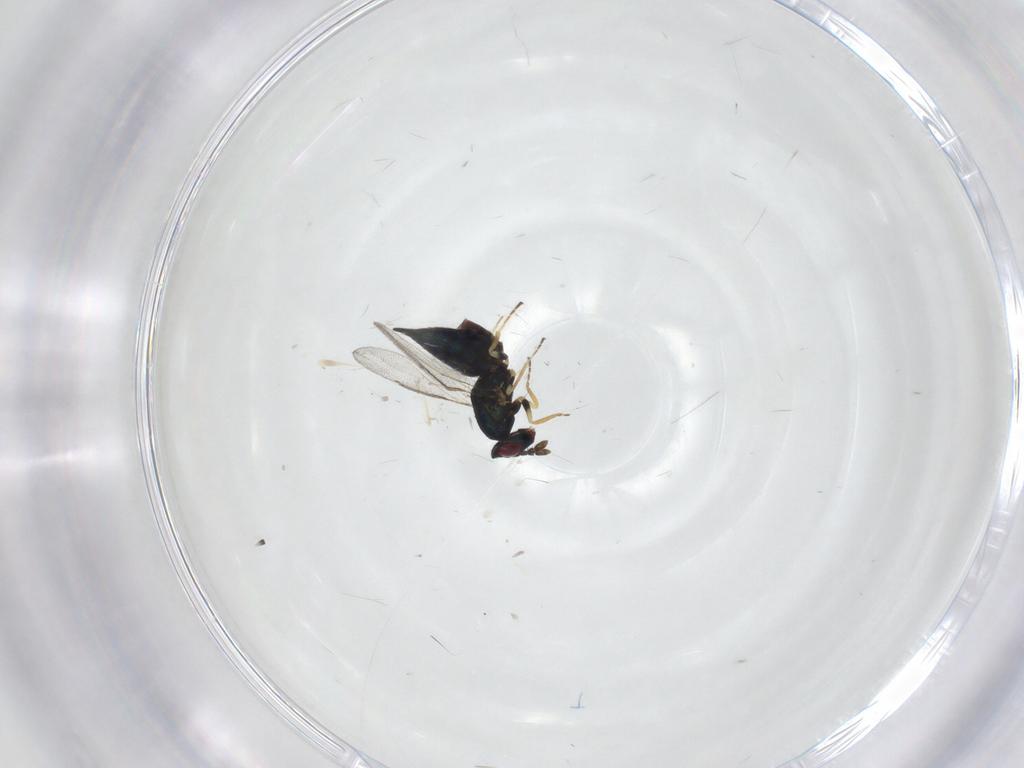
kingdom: Animalia
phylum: Arthropoda
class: Insecta
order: Hymenoptera
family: Eulophidae
